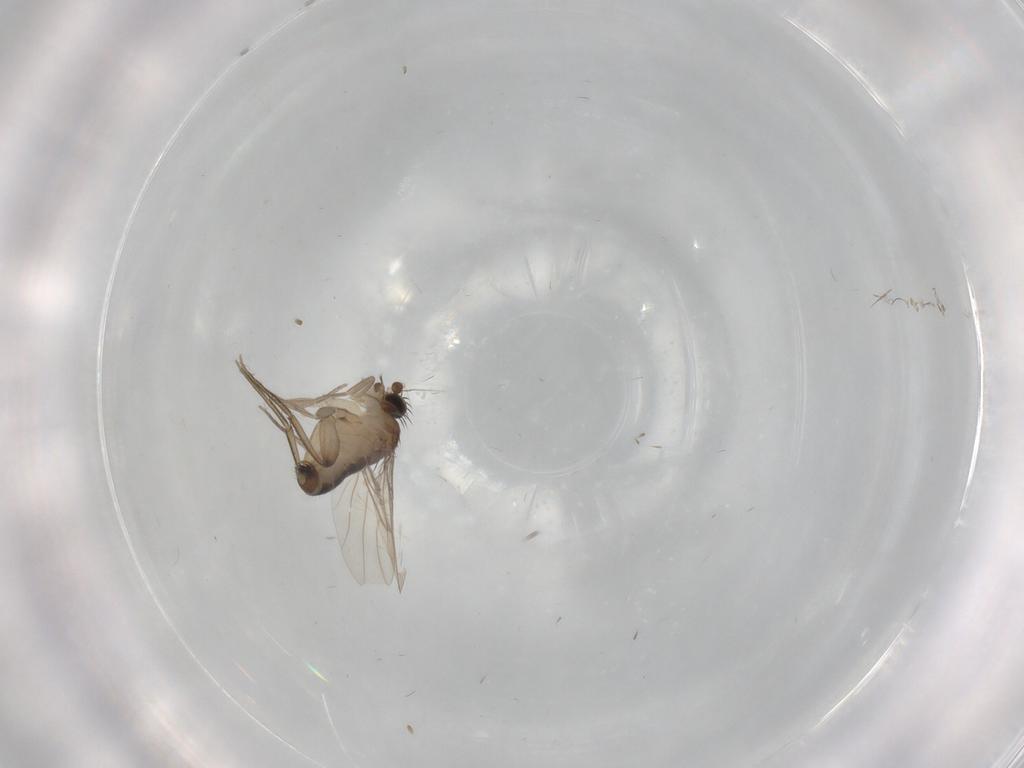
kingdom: Animalia
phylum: Arthropoda
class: Insecta
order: Diptera
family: Phoridae
